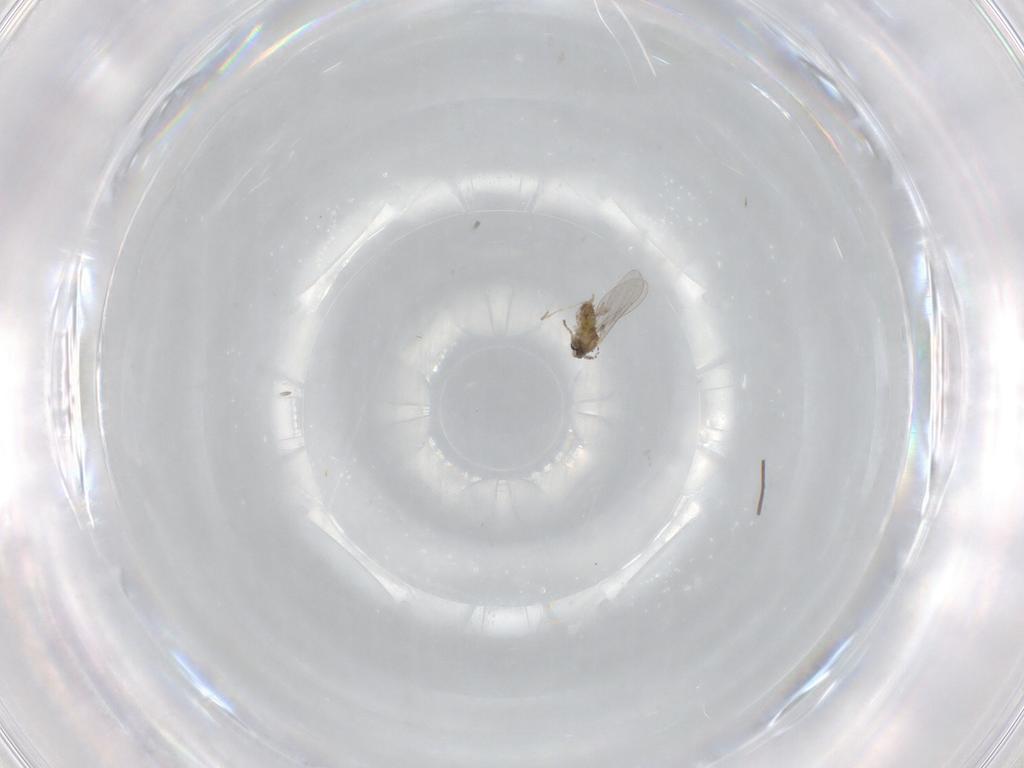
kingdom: Animalia
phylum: Arthropoda
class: Insecta
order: Diptera
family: Cecidomyiidae
